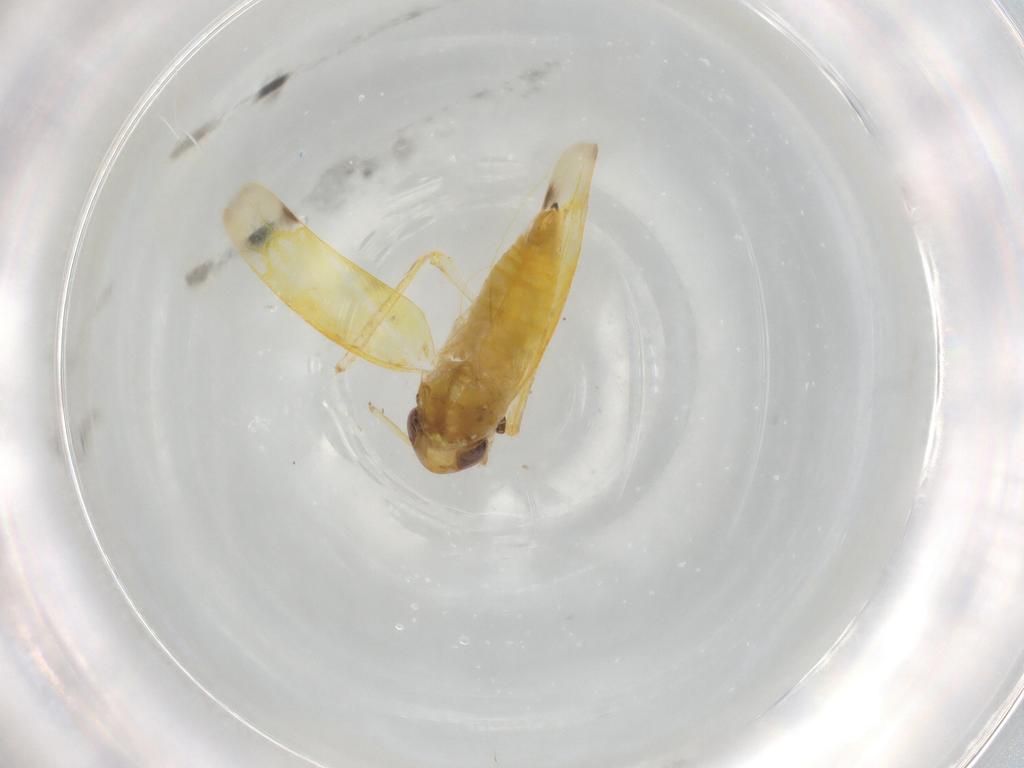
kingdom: Animalia
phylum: Arthropoda
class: Insecta
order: Hemiptera
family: Cicadellidae
